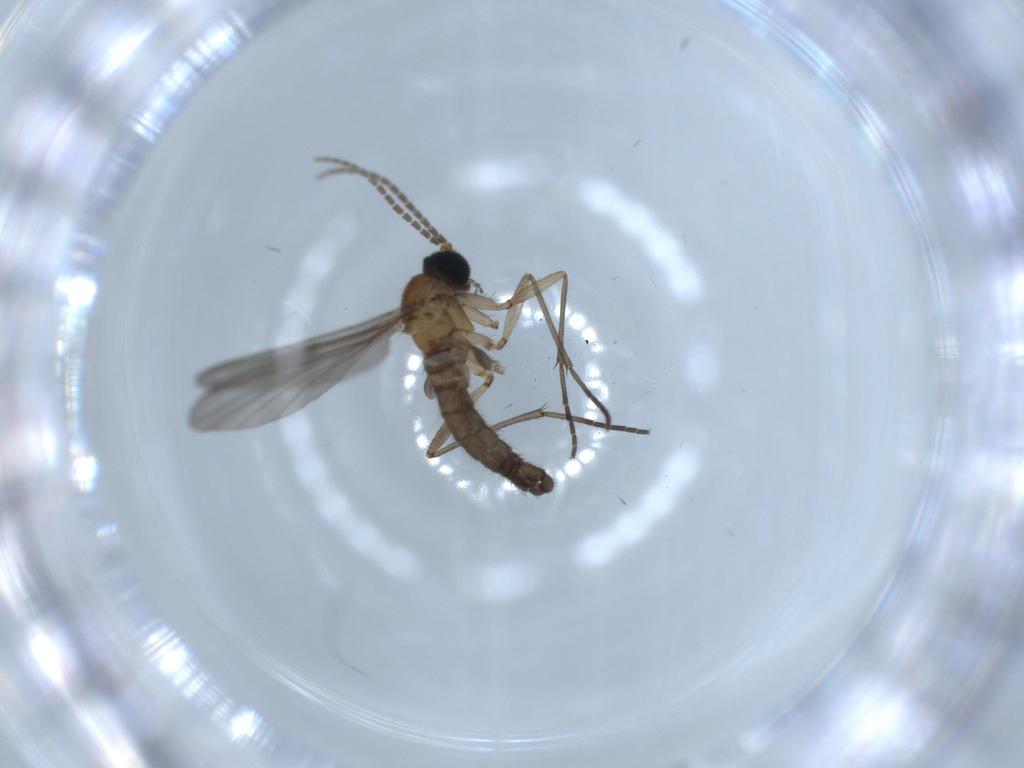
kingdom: Animalia
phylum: Arthropoda
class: Insecta
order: Diptera
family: Sciaridae
